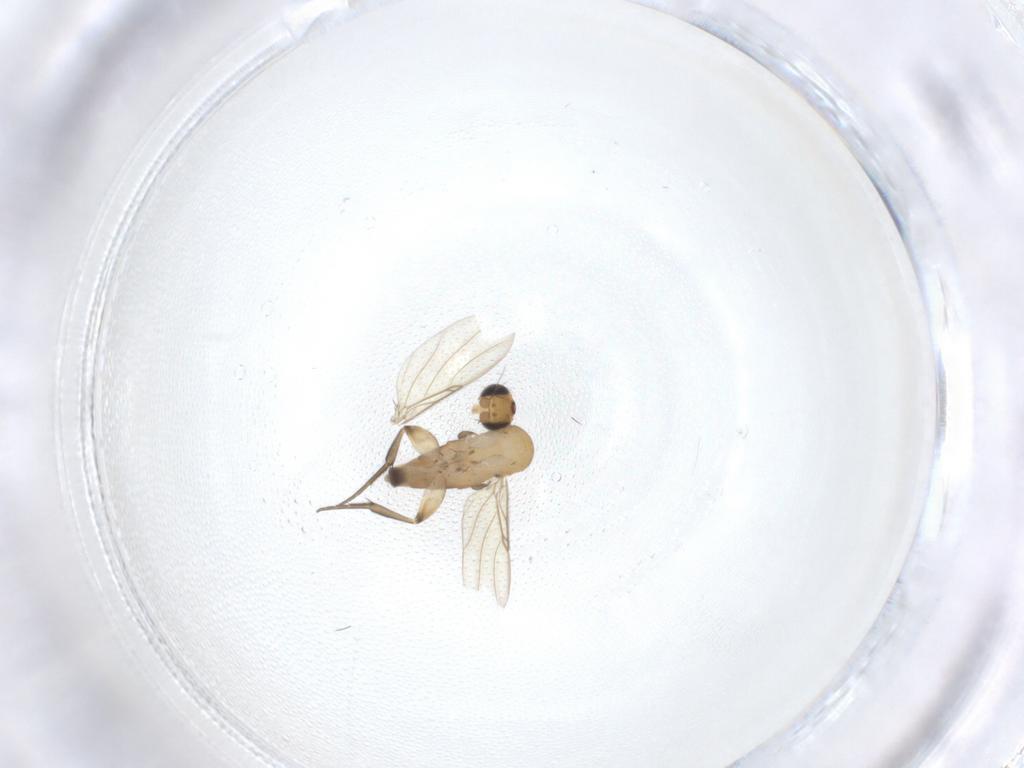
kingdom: Animalia
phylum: Arthropoda
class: Insecta
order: Diptera
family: Phoridae
